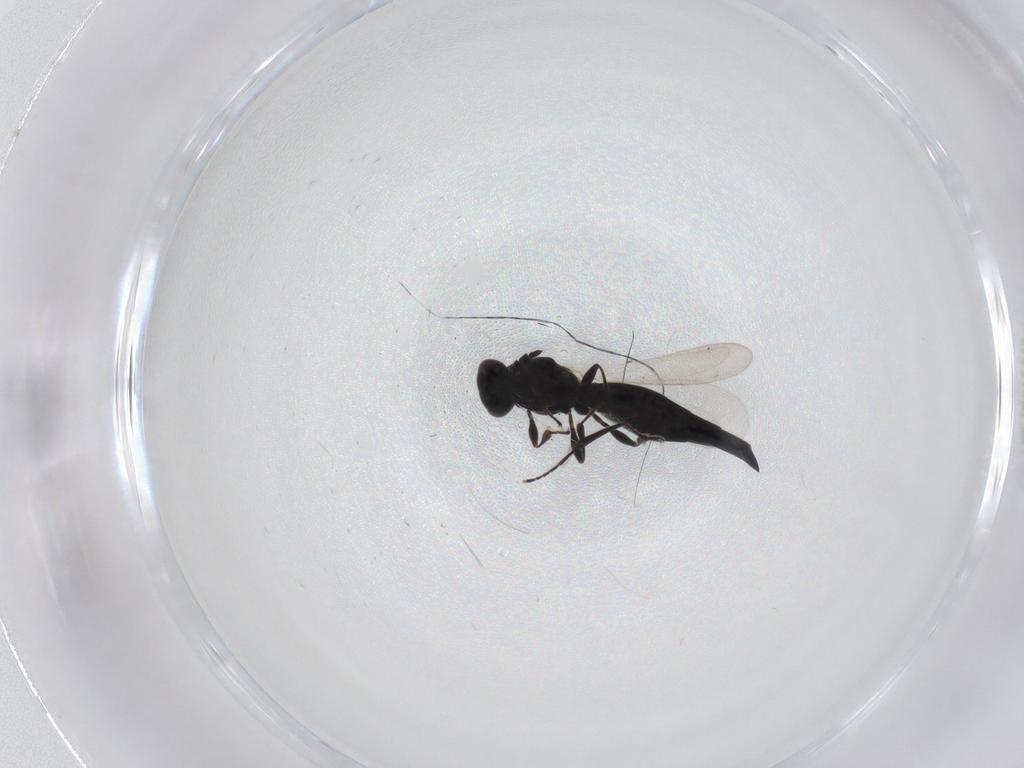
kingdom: Animalia
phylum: Arthropoda
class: Insecta
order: Hymenoptera
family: Platygastridae
